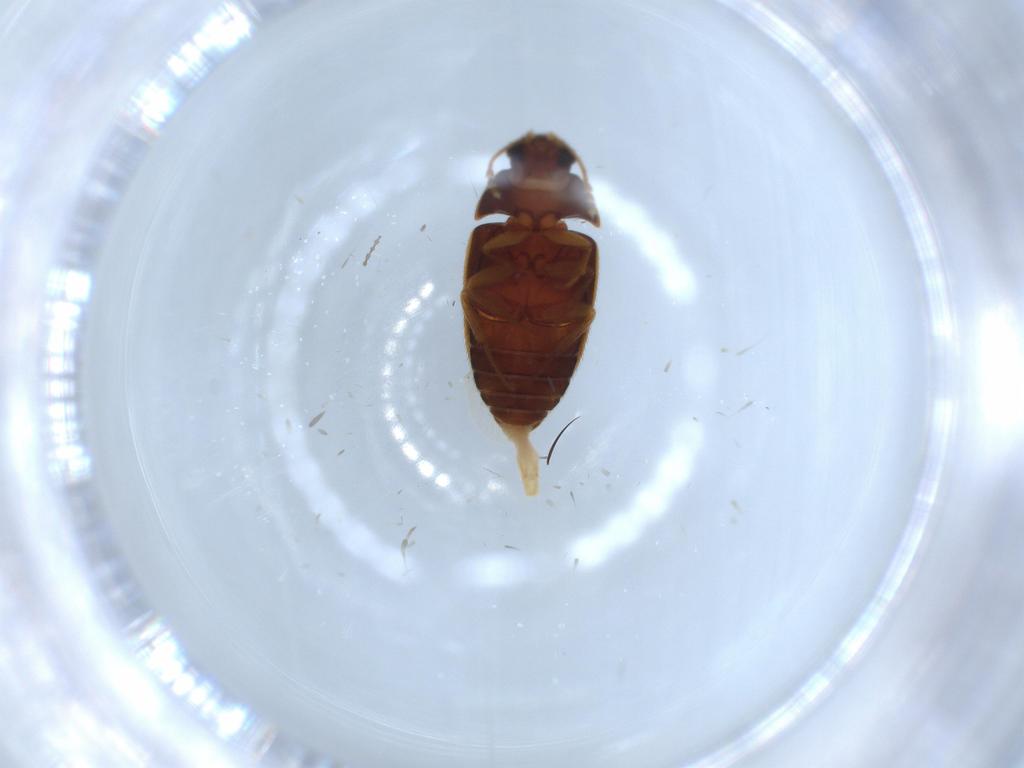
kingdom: Animalia
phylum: Arthropoda
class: Insecta
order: Coleoptera
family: Mycetophagidae
